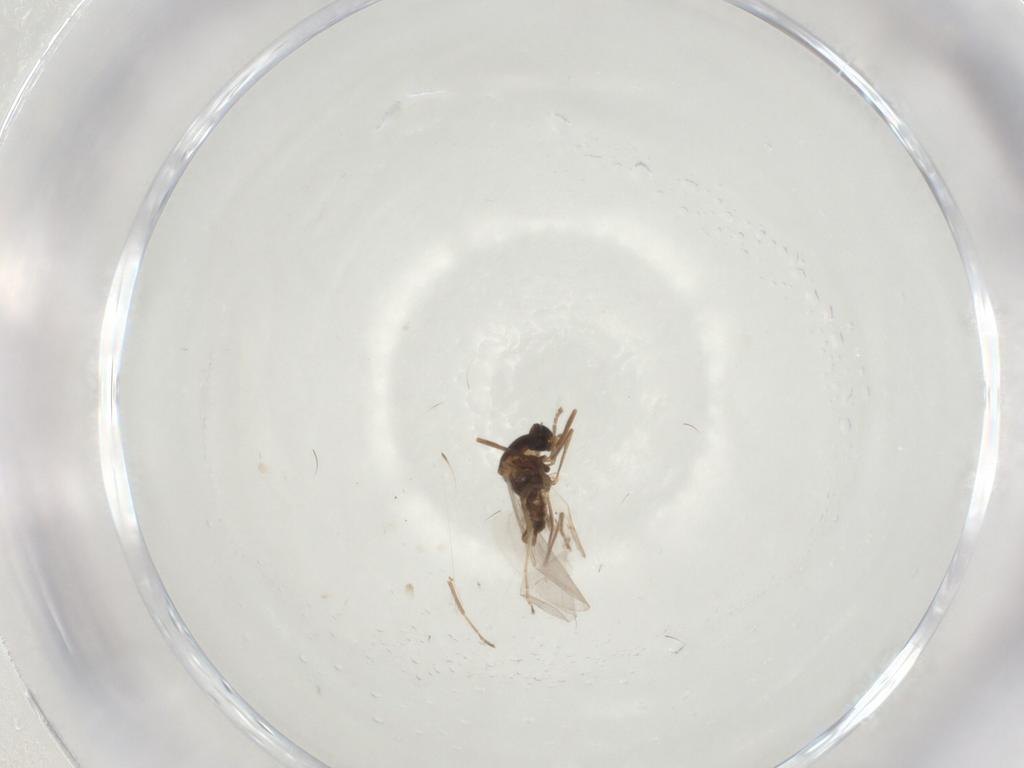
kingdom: Animalia
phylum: Arthropoda
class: Insecta
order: Diptera
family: Cecidomyiidae
